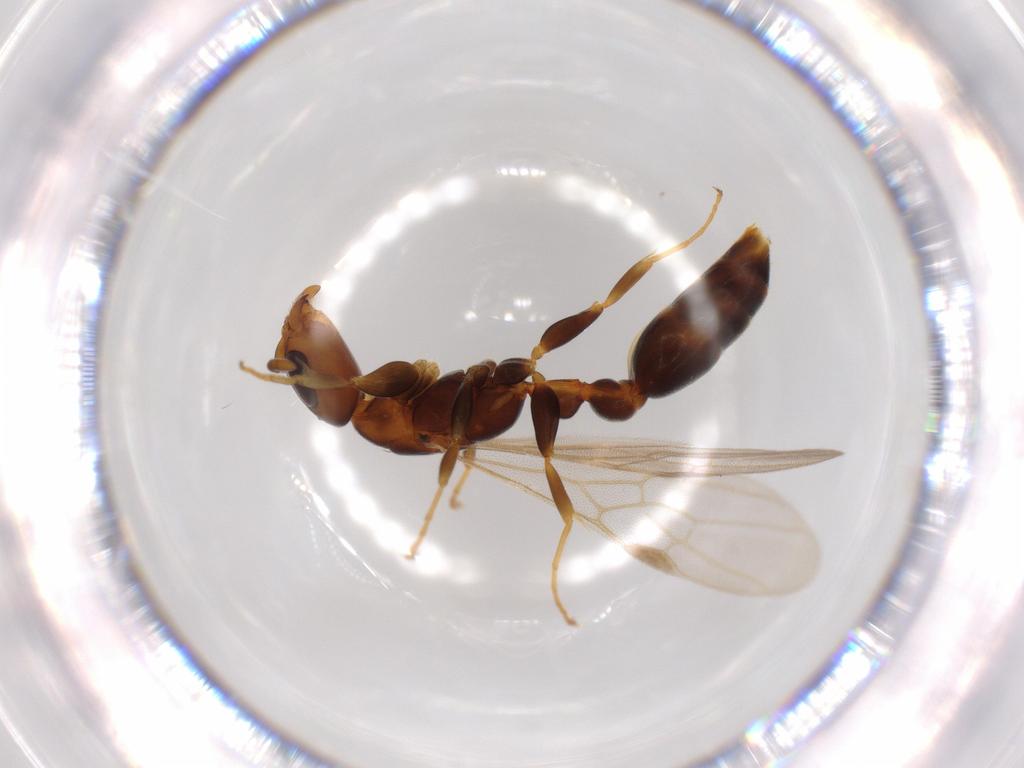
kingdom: Animalia
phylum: Arthropoda
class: Insecta
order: Hymenoptera
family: Formicidae
